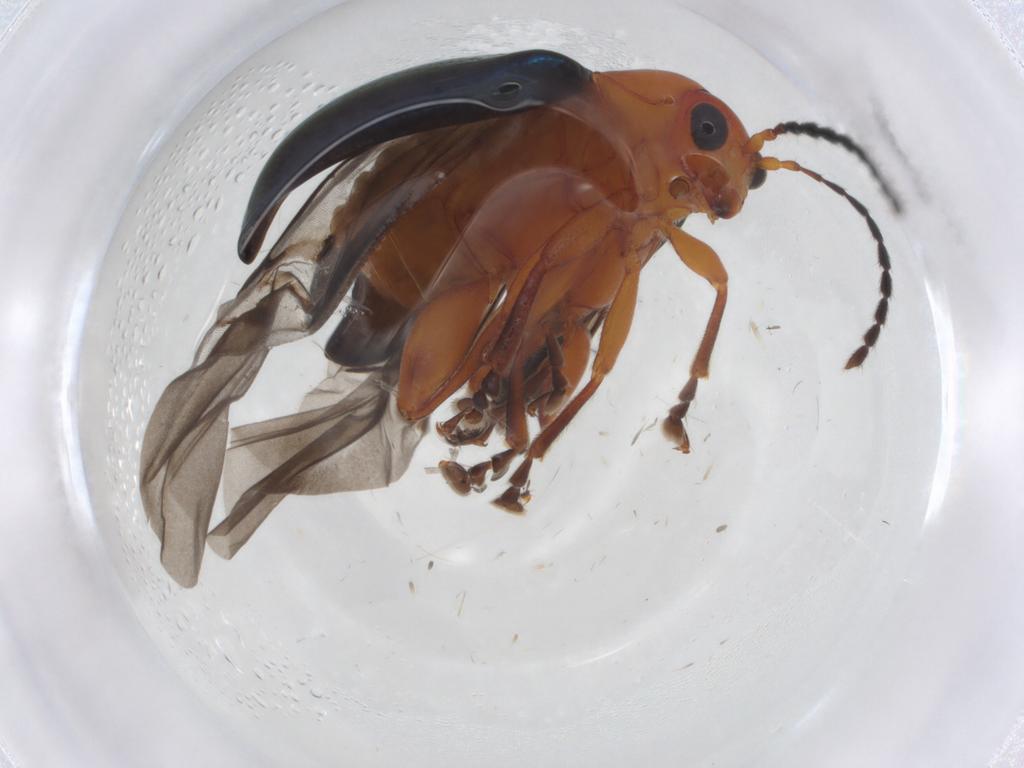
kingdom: Animalia
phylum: Arthropoda
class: Insecta
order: Coleoptera
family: Chrysomelidae
